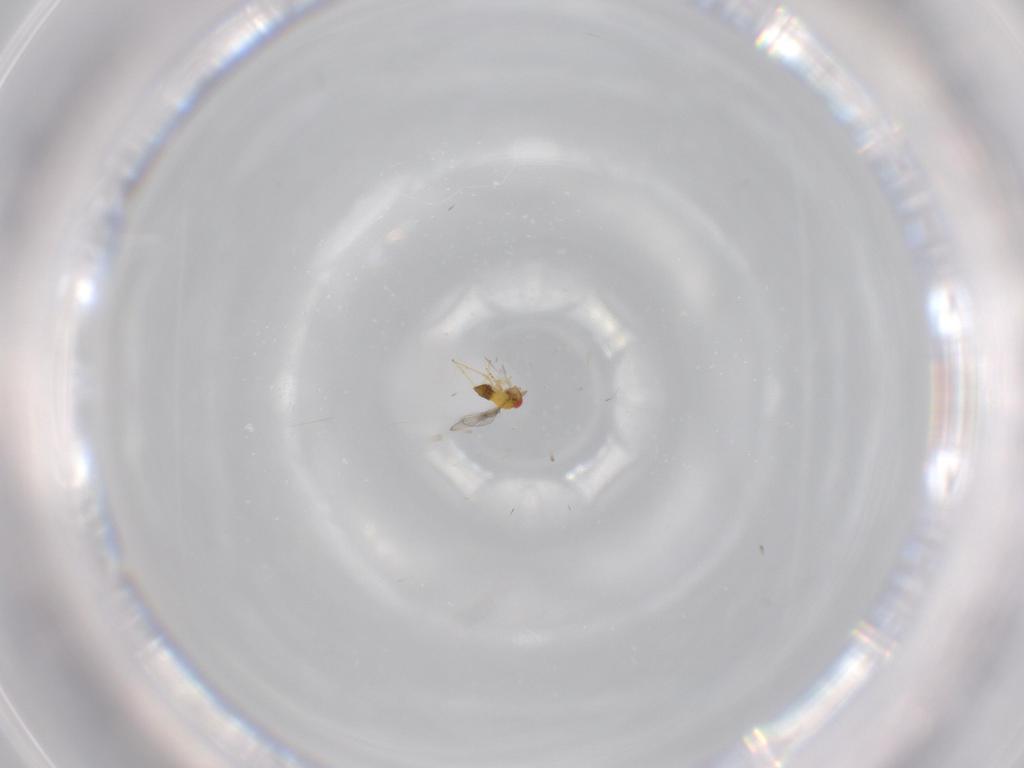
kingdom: Animalia
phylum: Arthropoda
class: Insecta
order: Hymenoptera
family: Trichogrammatidae
